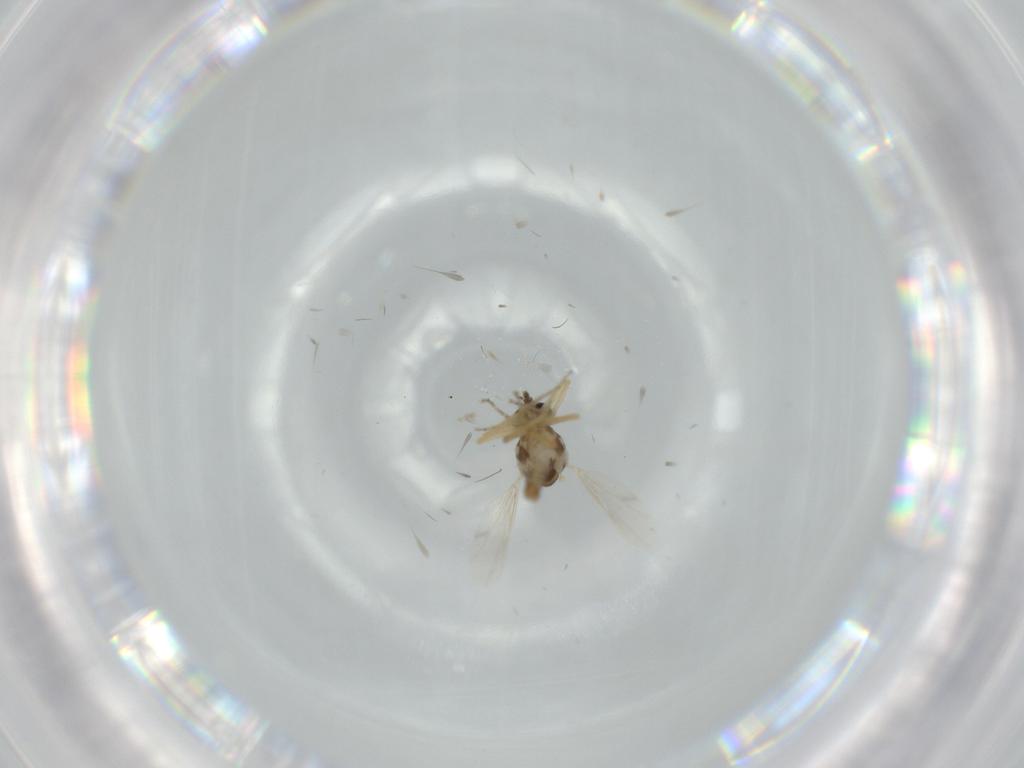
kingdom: Animalia
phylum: Arthropoda
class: Insecta
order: Diptera
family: Ceratopogonidae
